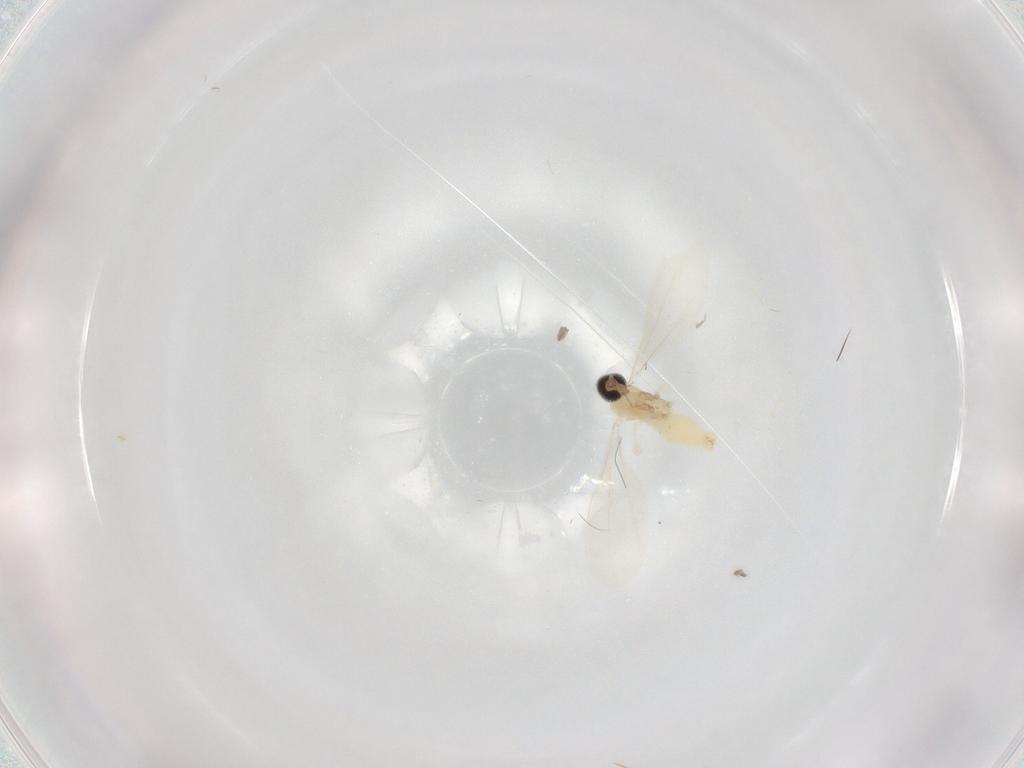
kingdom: Animalia
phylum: Arthropoda
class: Insecta
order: Diptera
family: Cecidomyiidae
